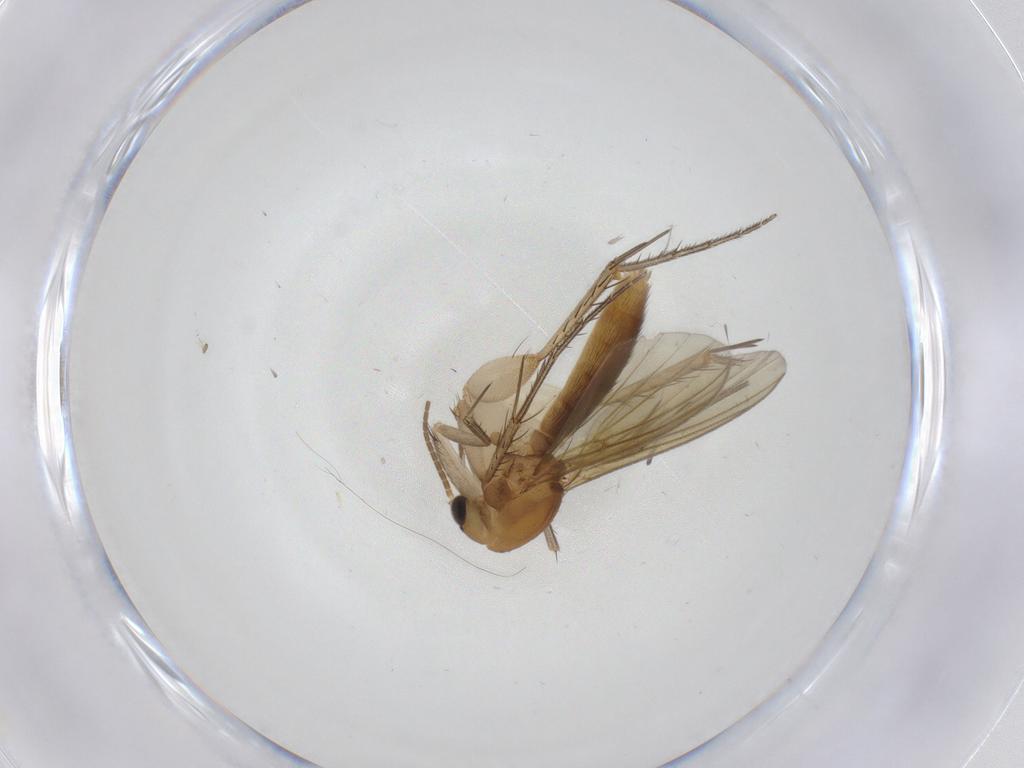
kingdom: Animalia
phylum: Arthropoda
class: Insecta
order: Diptera
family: Mycetophilidae
